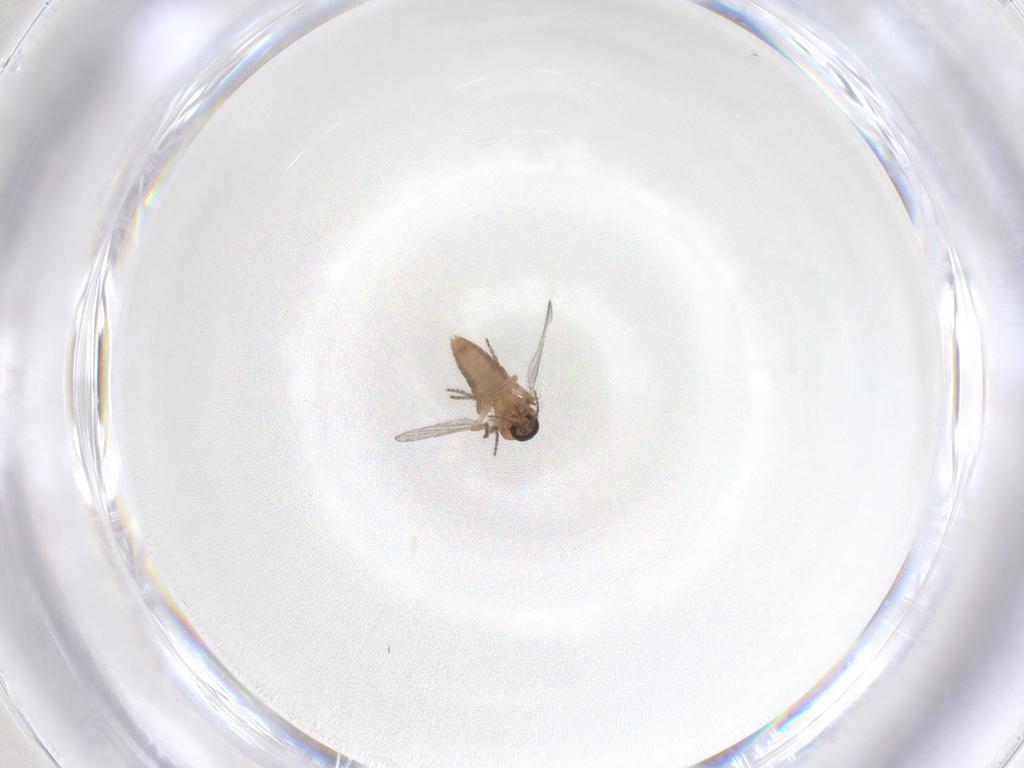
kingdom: Animalia
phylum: Arthropoda
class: Insecta
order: Diptera
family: Ceratopogonidae
